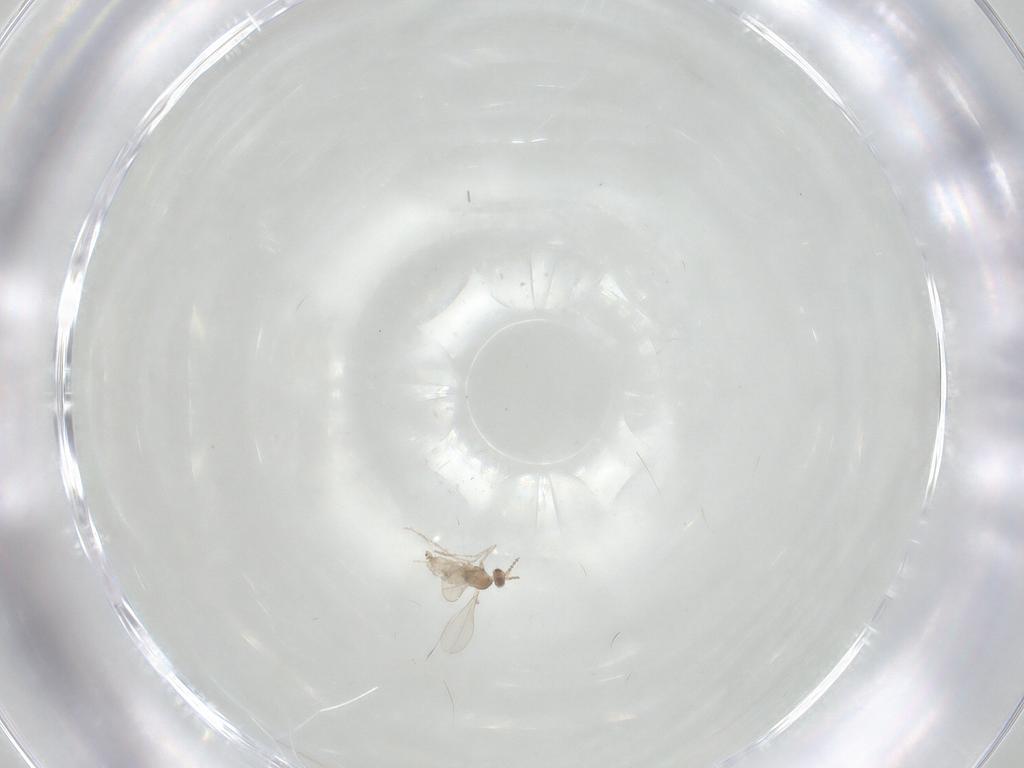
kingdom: Animalia
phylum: Arthropoda
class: Insecta
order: Diptera
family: Cecidomyiidae
